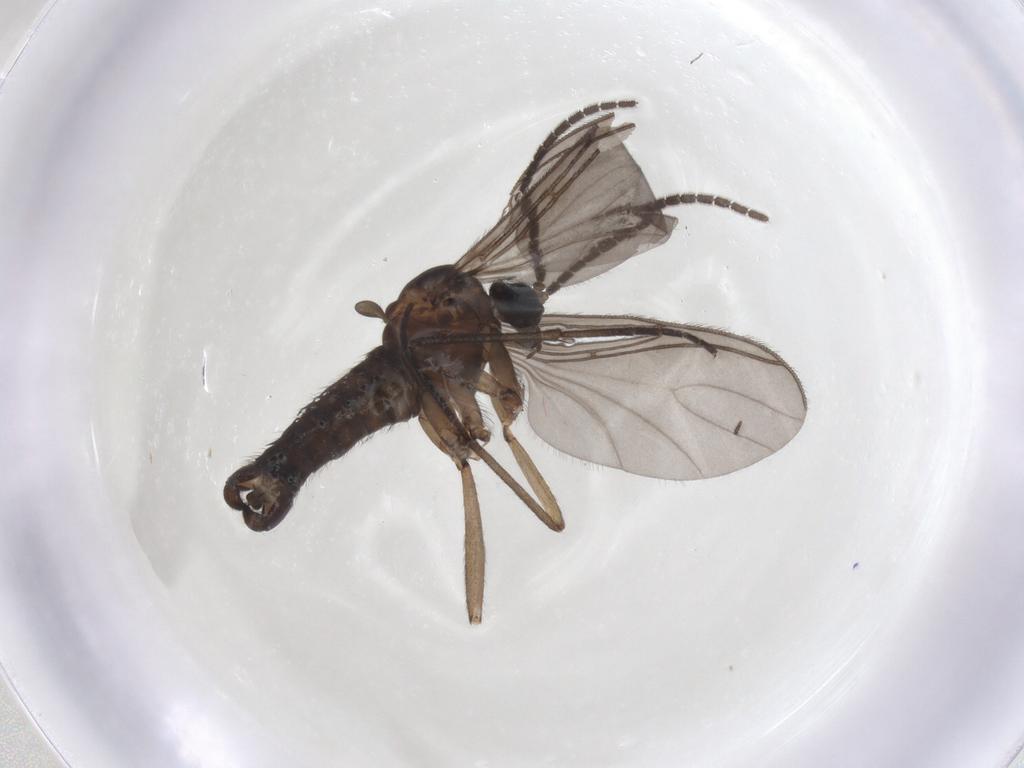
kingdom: Animalia
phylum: Arthropoda
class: Insecta
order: Diptera
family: Sciaridae
